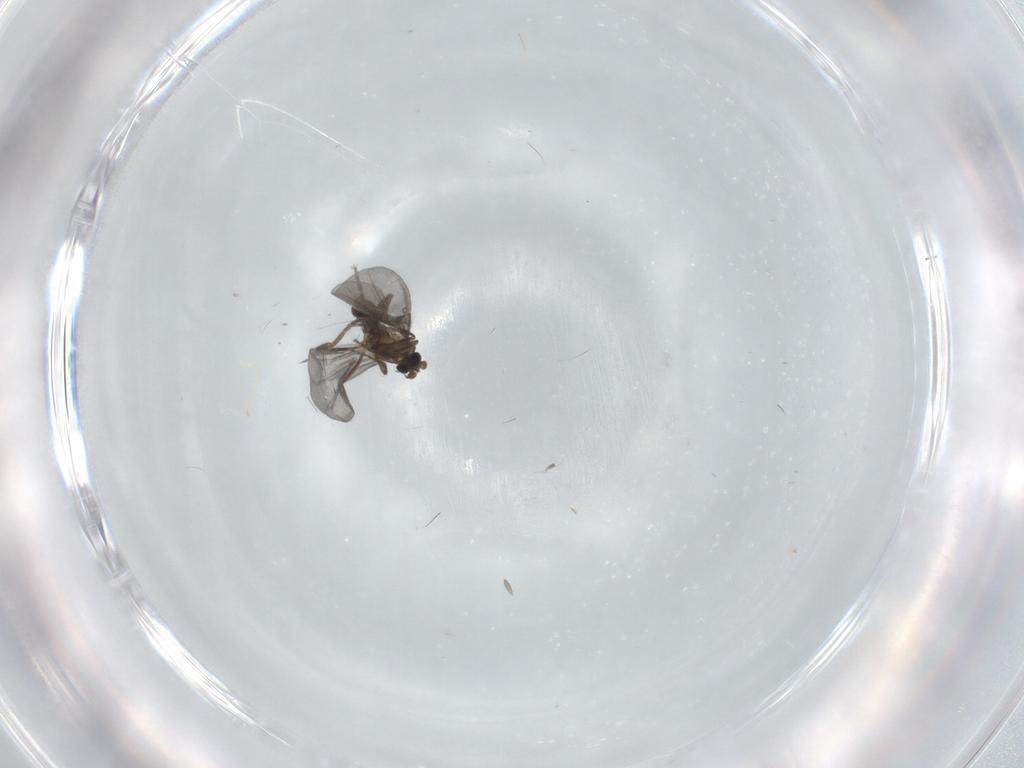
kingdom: Animalia
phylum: Arthropoda
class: Insecta
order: Diptera
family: Phoridae
